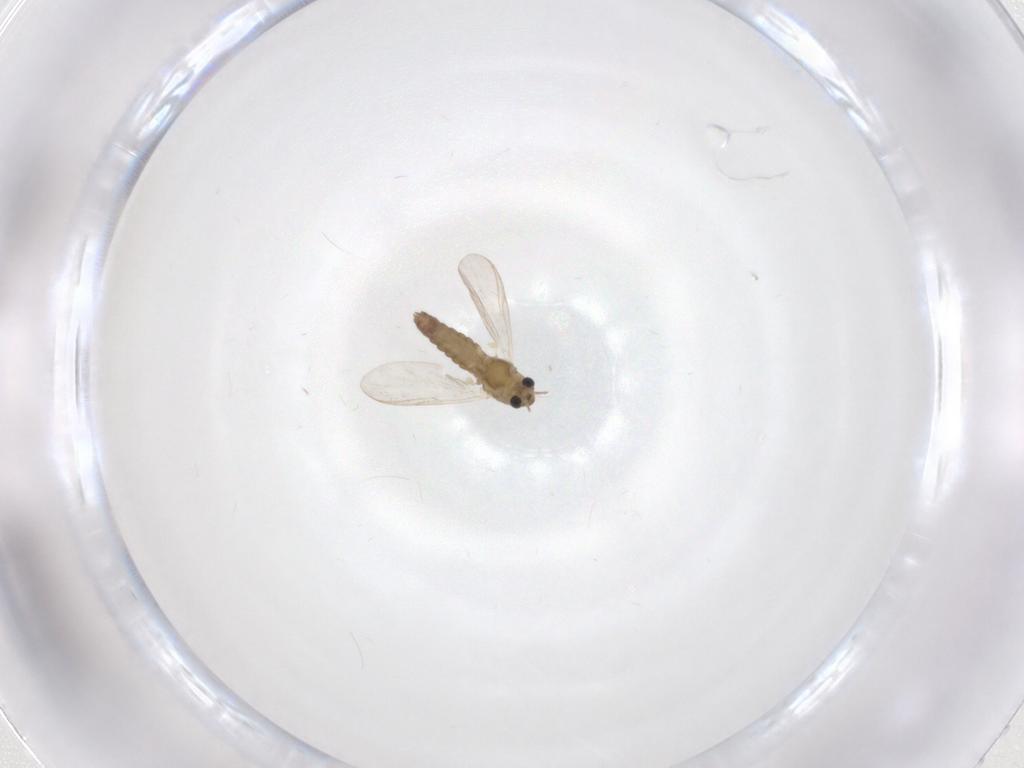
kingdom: Animalia
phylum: Arthropoda
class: Insecta
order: Diptera
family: Chironomidae
